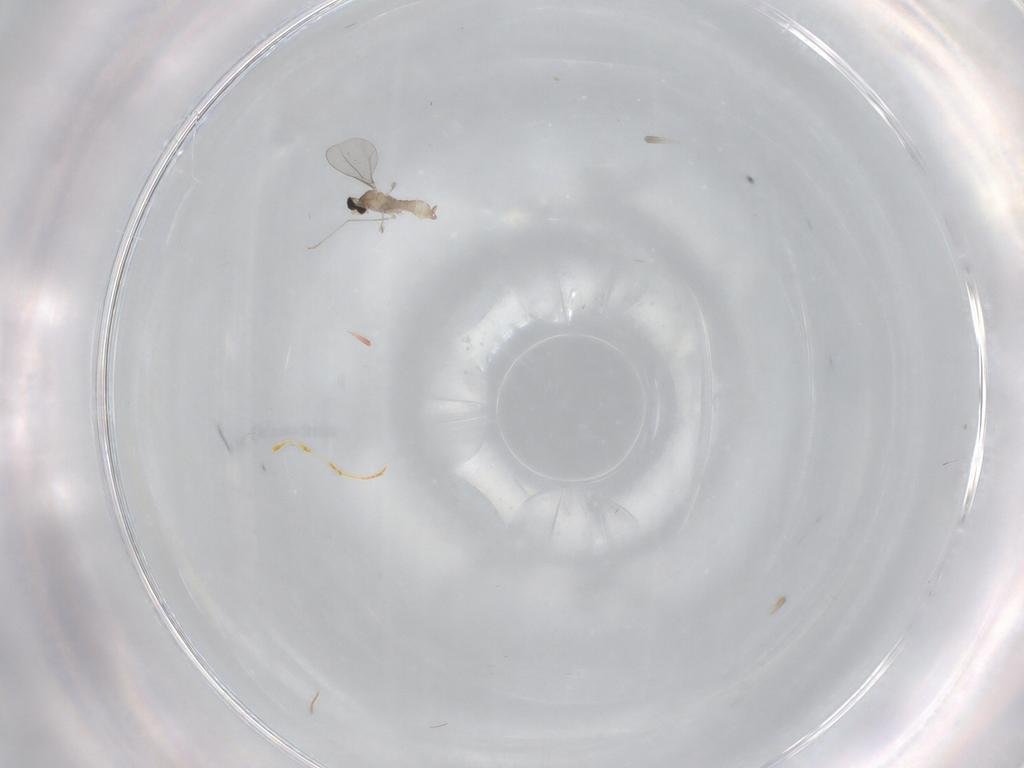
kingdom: Animalia
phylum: Arthropoda
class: Insecta
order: Diptera
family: Cecidomyiidae
